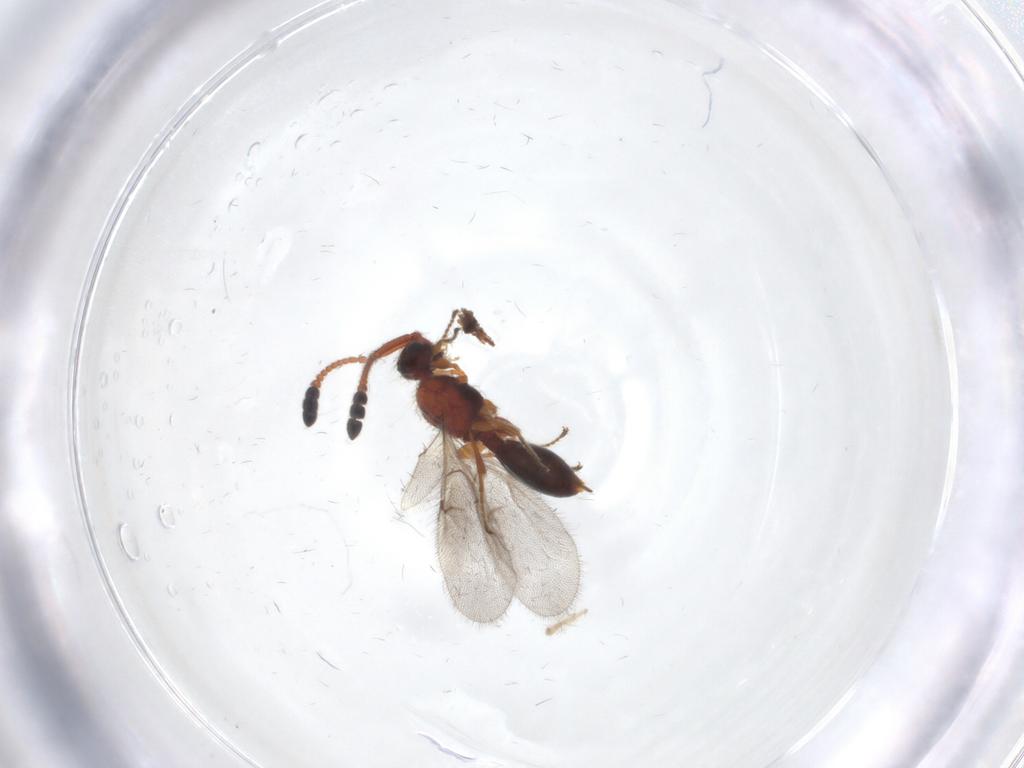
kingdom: Animalia
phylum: Arthropoda
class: Insecta
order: Hymenoptera
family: Diapriidae
